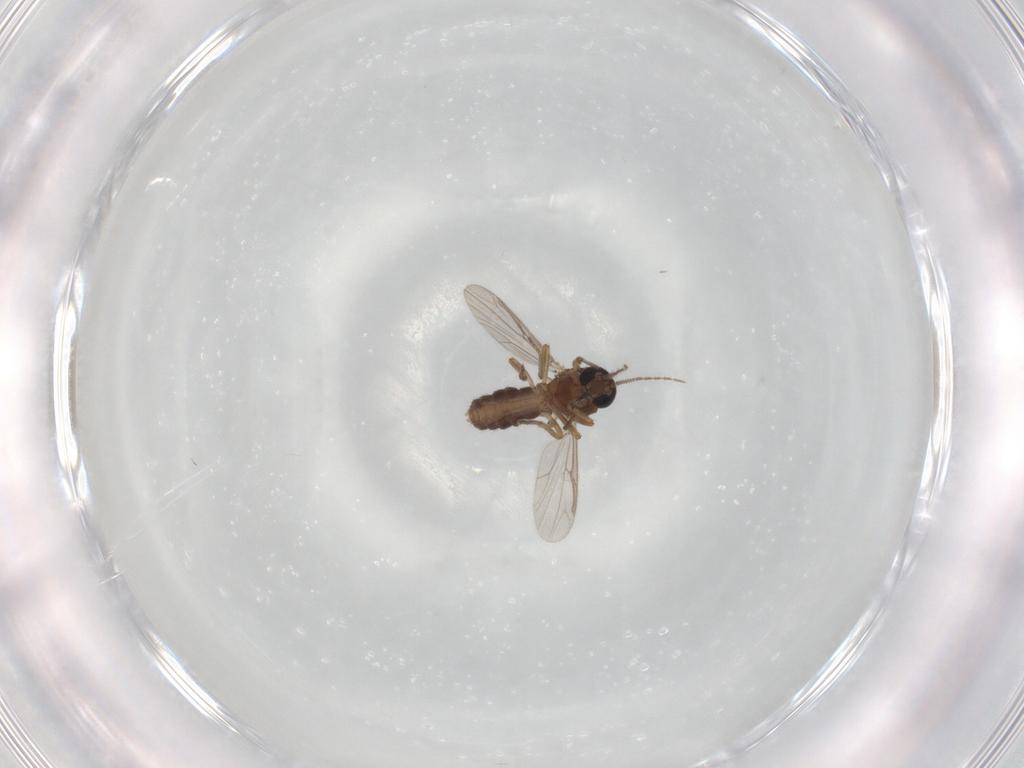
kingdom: Animalia
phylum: Arthropoda
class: Insecta
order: Diptera
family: Ceratopogonidae
